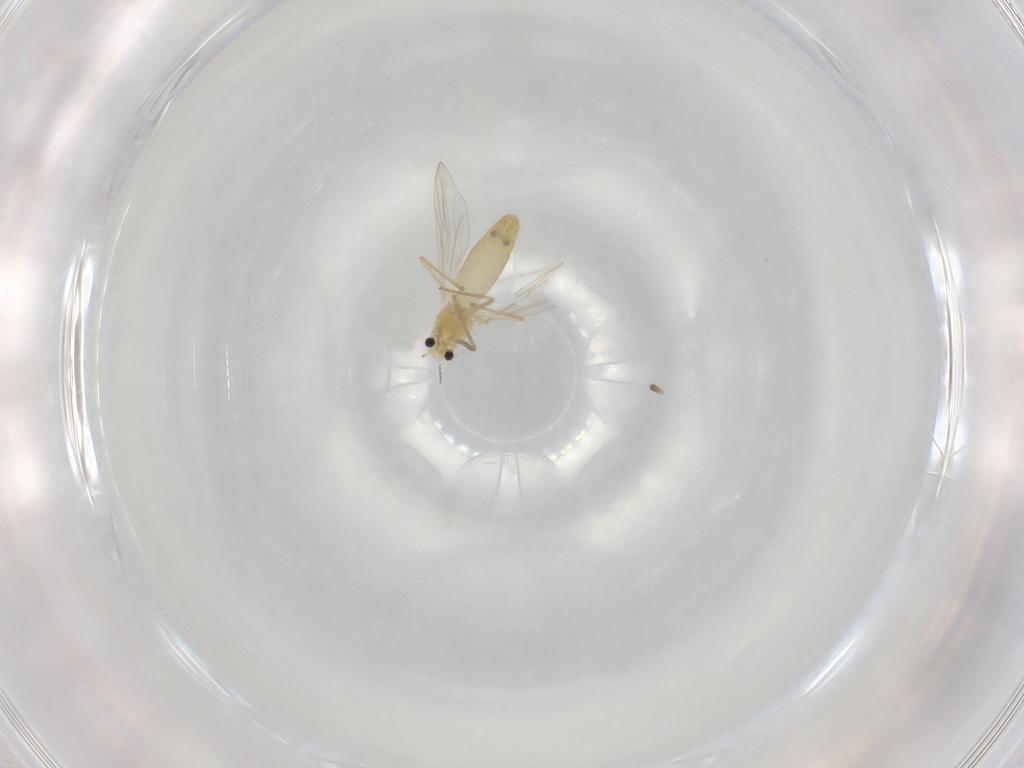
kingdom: Animalia
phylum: Arthropoda
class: Insecta
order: Diptera
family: Chironomidae
